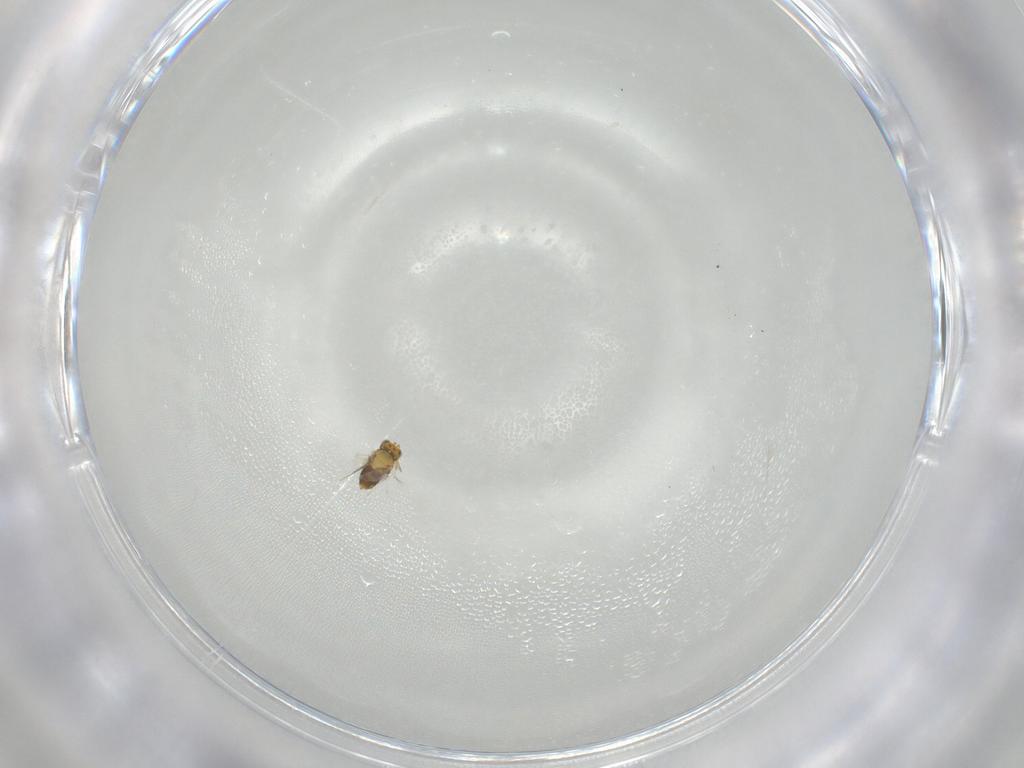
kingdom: Animalia
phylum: Arthropoda
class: Insecta
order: Hymenoptera
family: Aphelinidae
